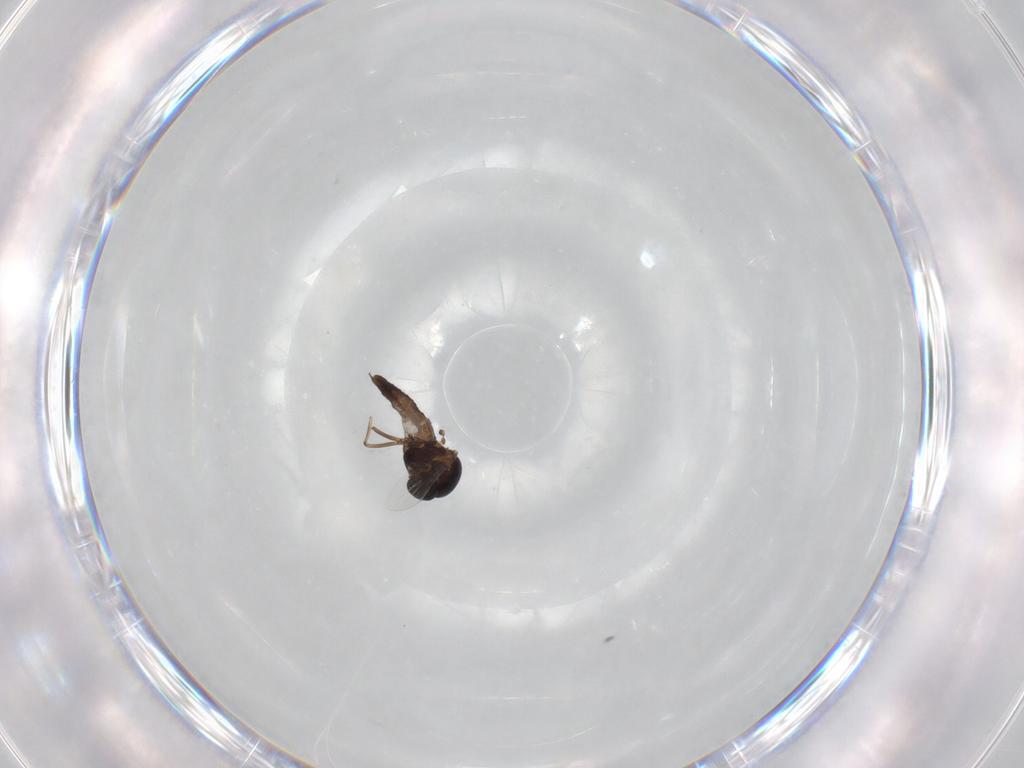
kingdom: Animalia
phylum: Arthropoda
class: Insecta
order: Diptera
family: Ceratopogonidae
